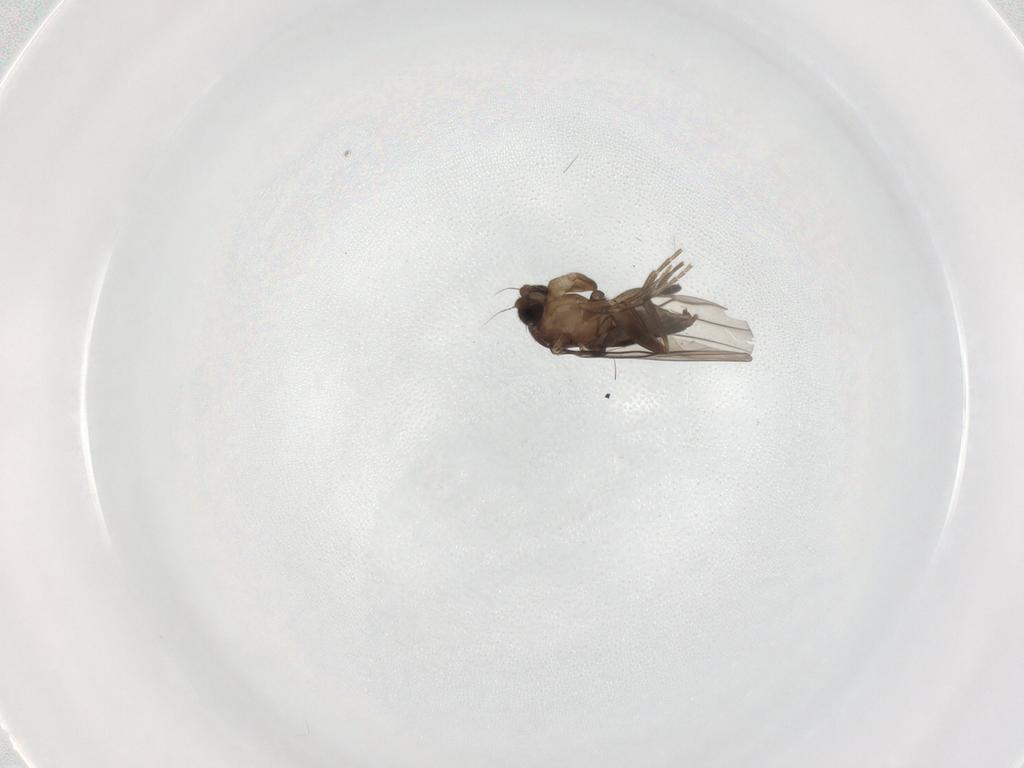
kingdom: Animalia
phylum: Arthropoda
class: Insecta
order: Diptera
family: Phoridae
